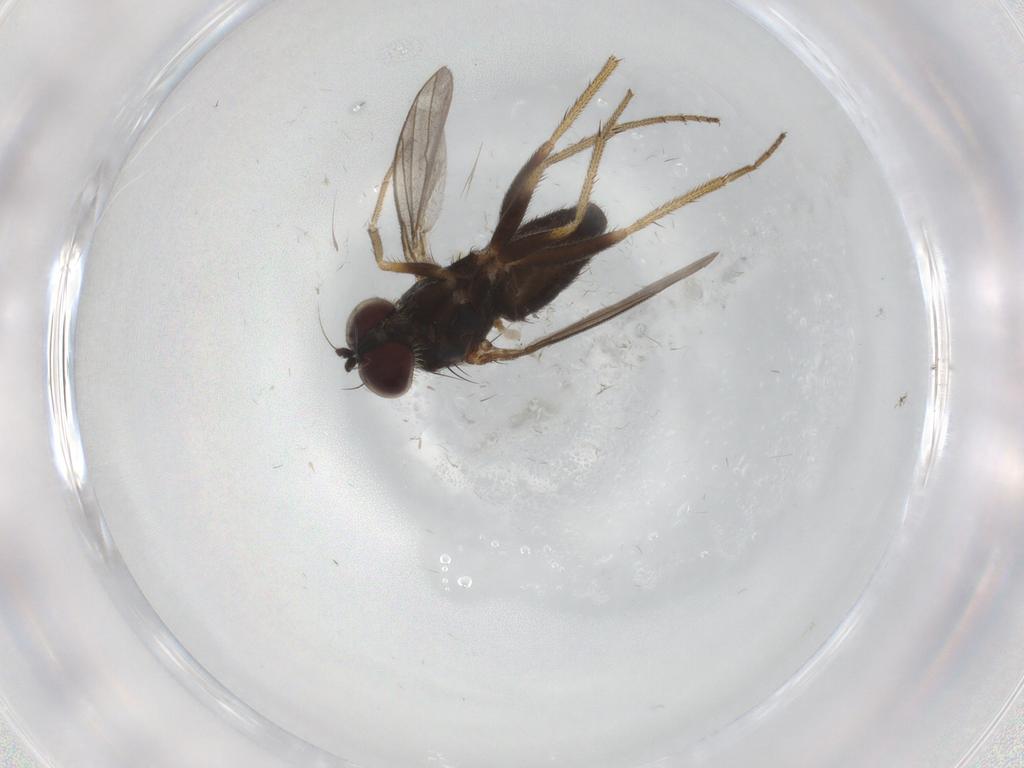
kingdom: Animalia
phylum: Arthropoda
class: Insecta
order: Diptera
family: Dolichopodidae
